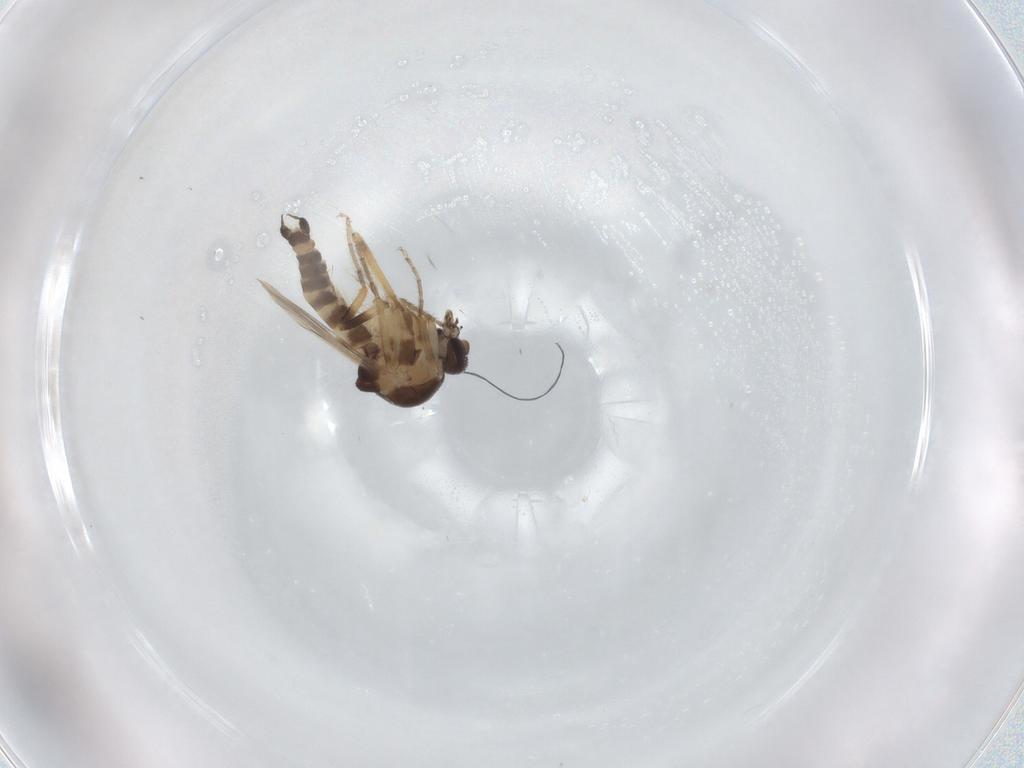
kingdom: Animalia
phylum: Arthropoda
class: Insecta
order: Diptera
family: Ceratopogonidae
